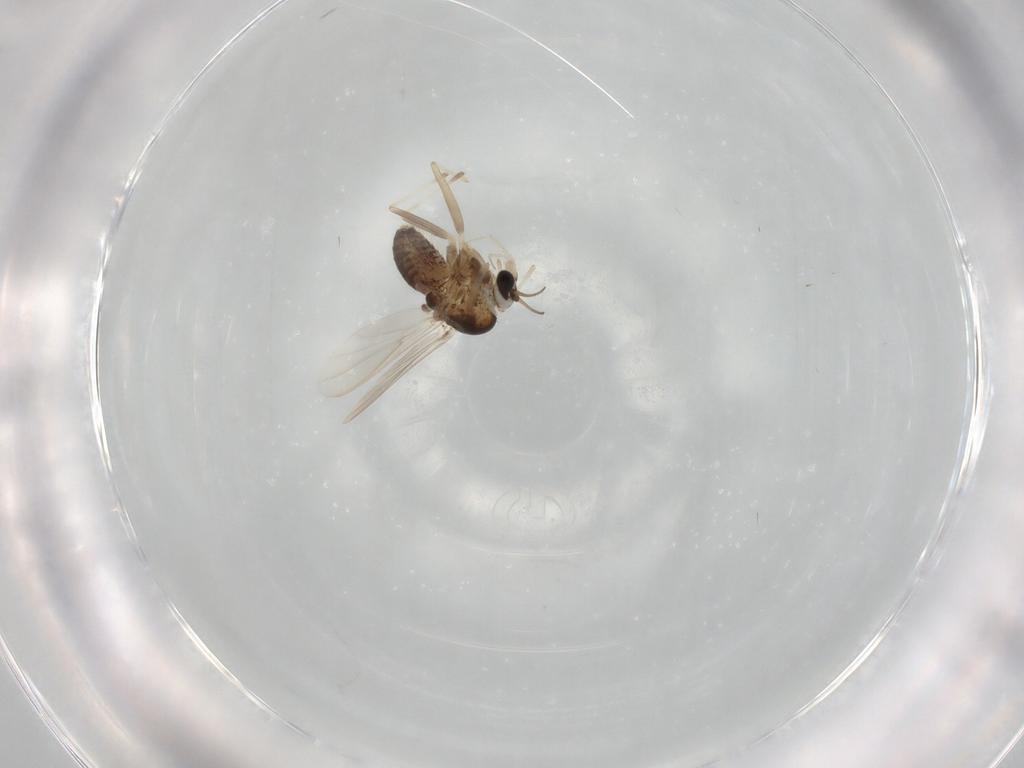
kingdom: Animalia
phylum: Arthropoda
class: Insecta
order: Diptera
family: Chironomidae
